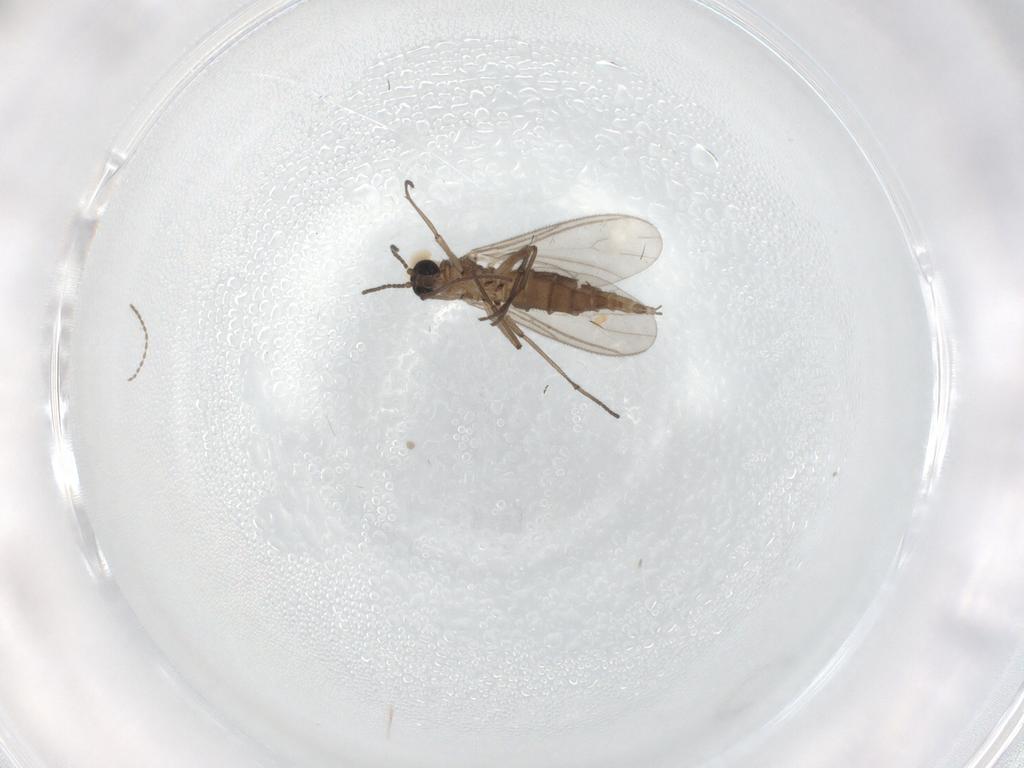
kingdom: Animalia
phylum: Arthropoda
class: Insecta
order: Diptera
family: Sciaridae
